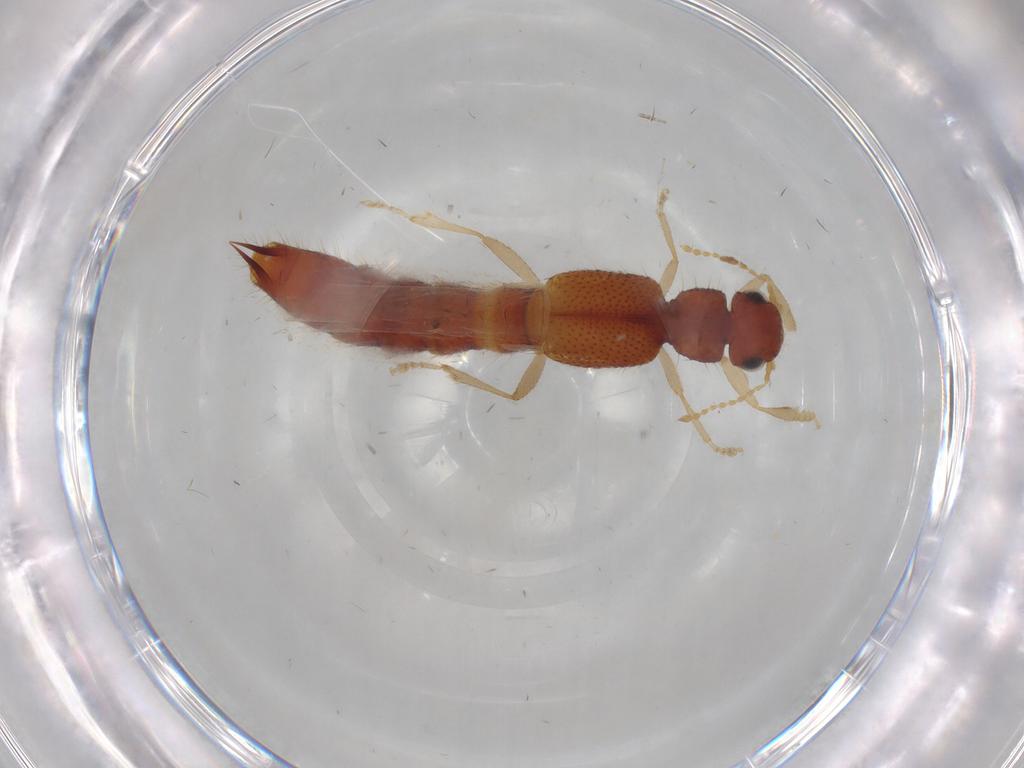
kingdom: Animalia
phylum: Arthropoda
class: Insecta
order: Coleoptera
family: Staphylinidae
